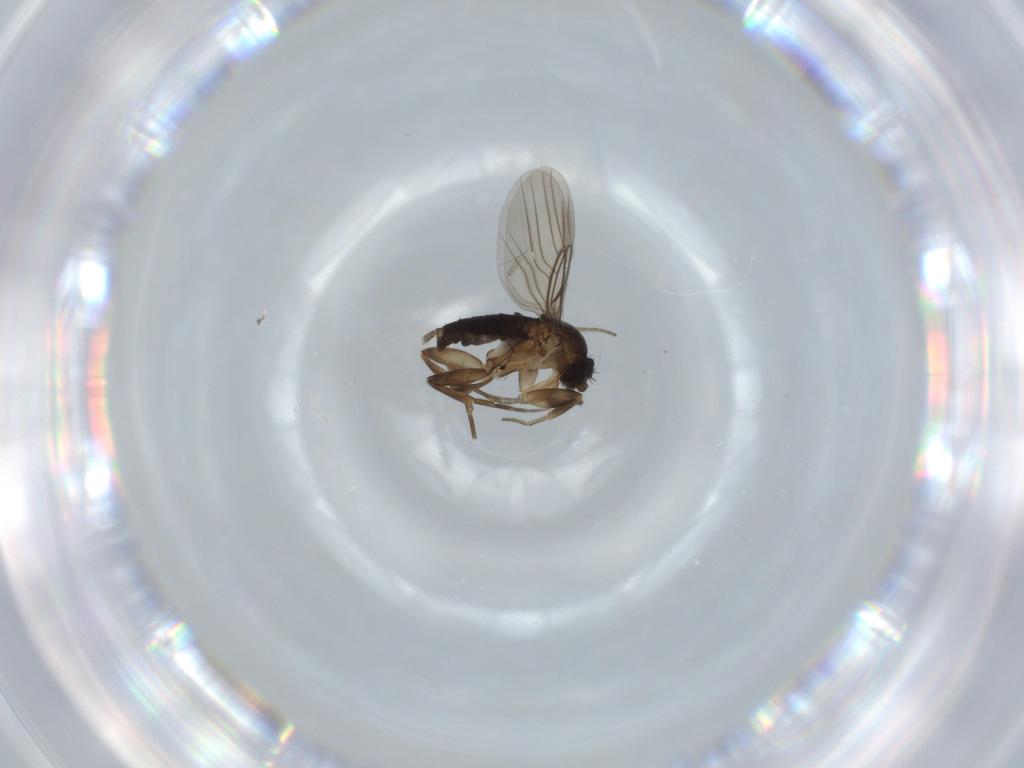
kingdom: Animalia
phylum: Arthropoda
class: Insecta
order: Diptera
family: Phoridae
